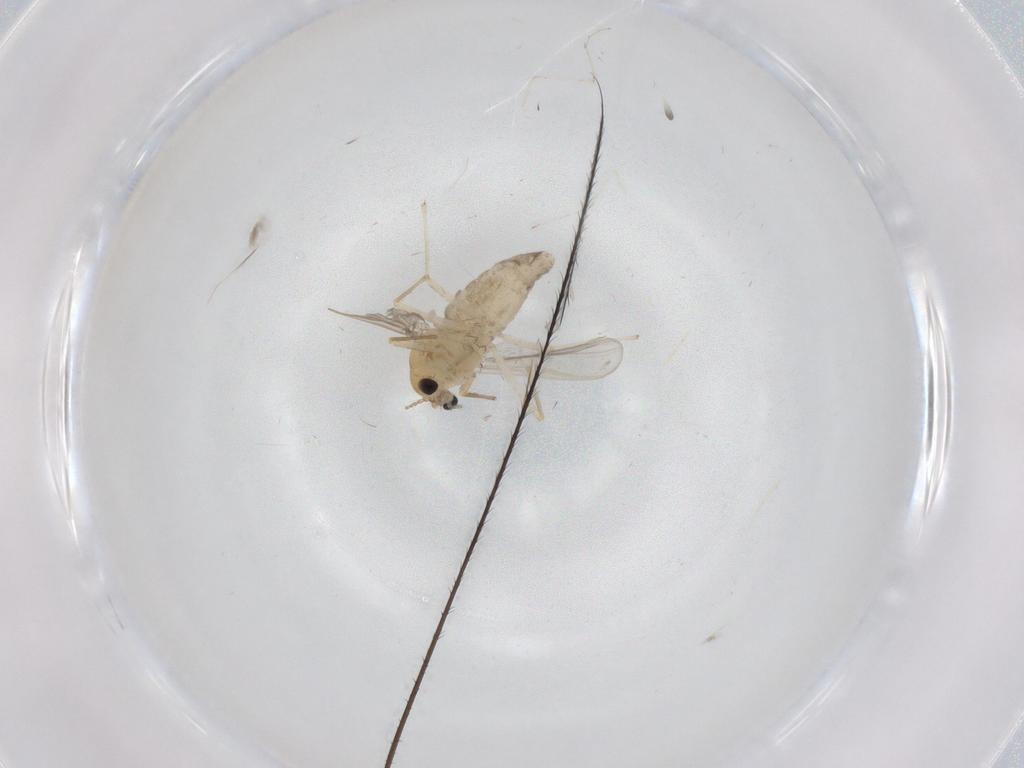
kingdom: Animalia
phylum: Arthropoda
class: Insecta
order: Diptera
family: Chironomidae
